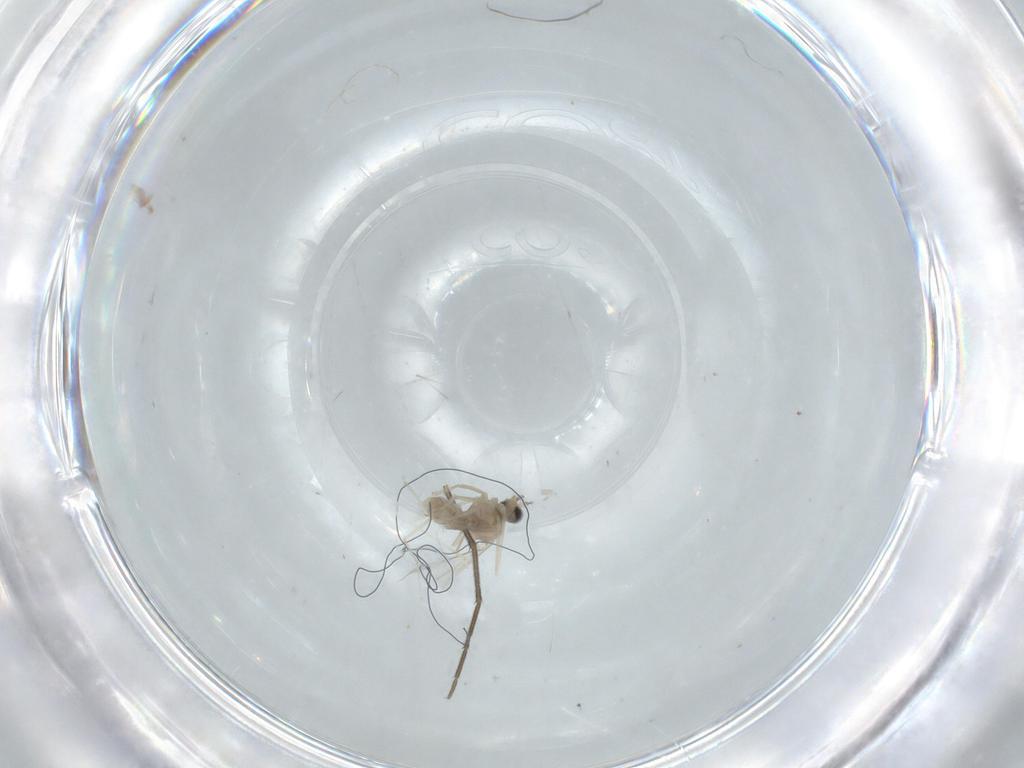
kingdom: Animalia
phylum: Arthropoda
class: Insecta
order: Diptera
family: Cecidomyiidae
